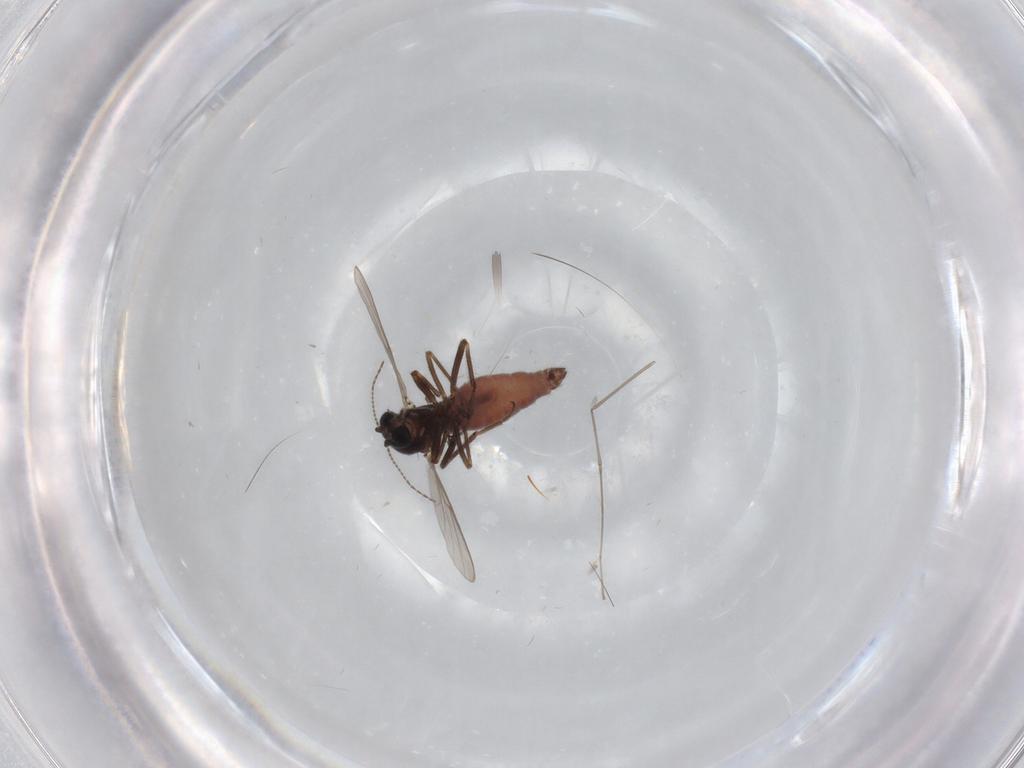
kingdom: Animalia
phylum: Arthropoda
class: Insecta
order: Diptera
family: Ceratopogonidae
